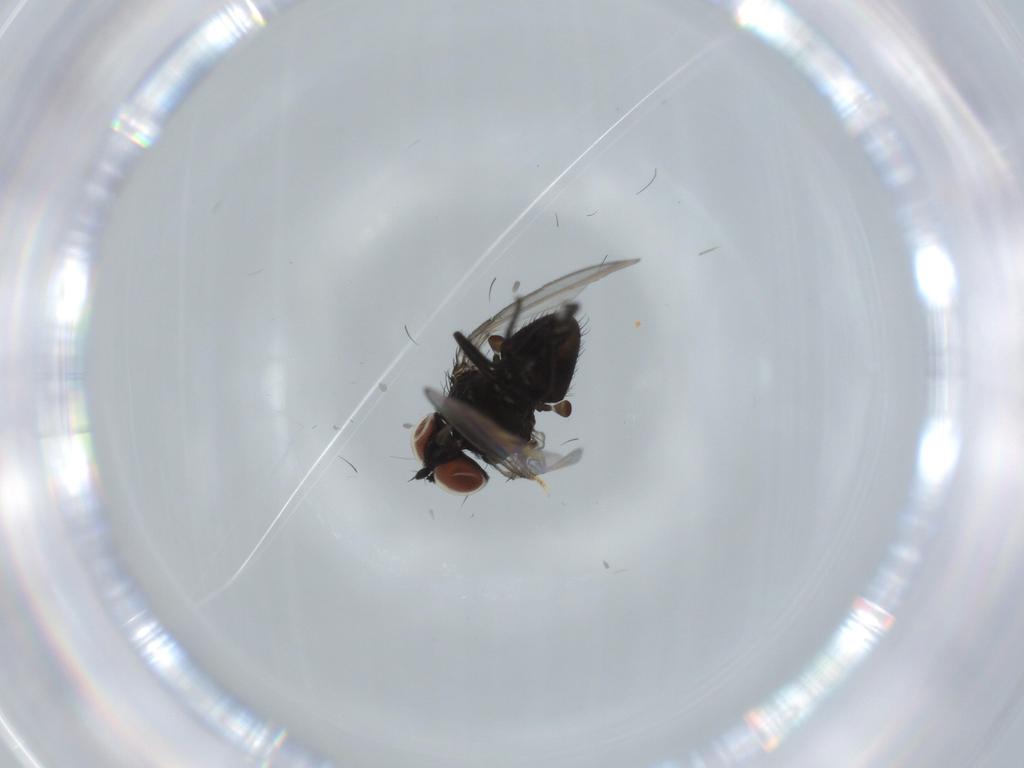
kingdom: Animalia
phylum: Arthropoda
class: Insecta
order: Diptera
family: Milichiidae
